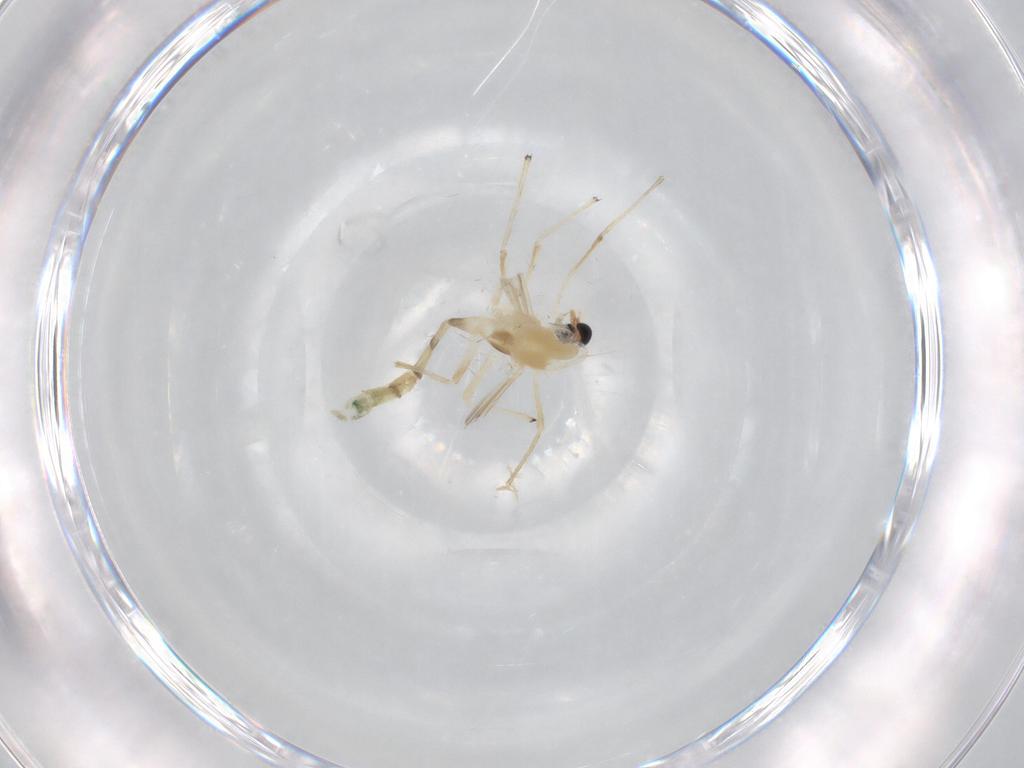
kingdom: Animalia
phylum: Arthropoda
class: Insecta
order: Diptera
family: Chironomidae
